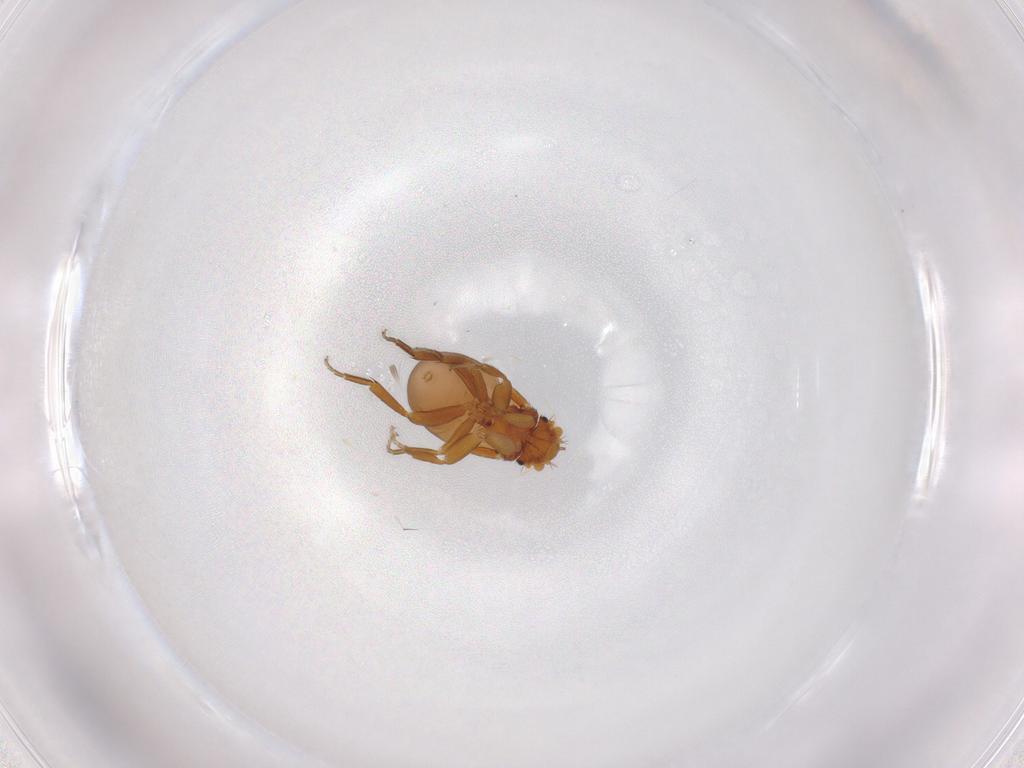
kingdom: Animalia
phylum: Arthropoda
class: Insecta
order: Diptera
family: Sciaridae
